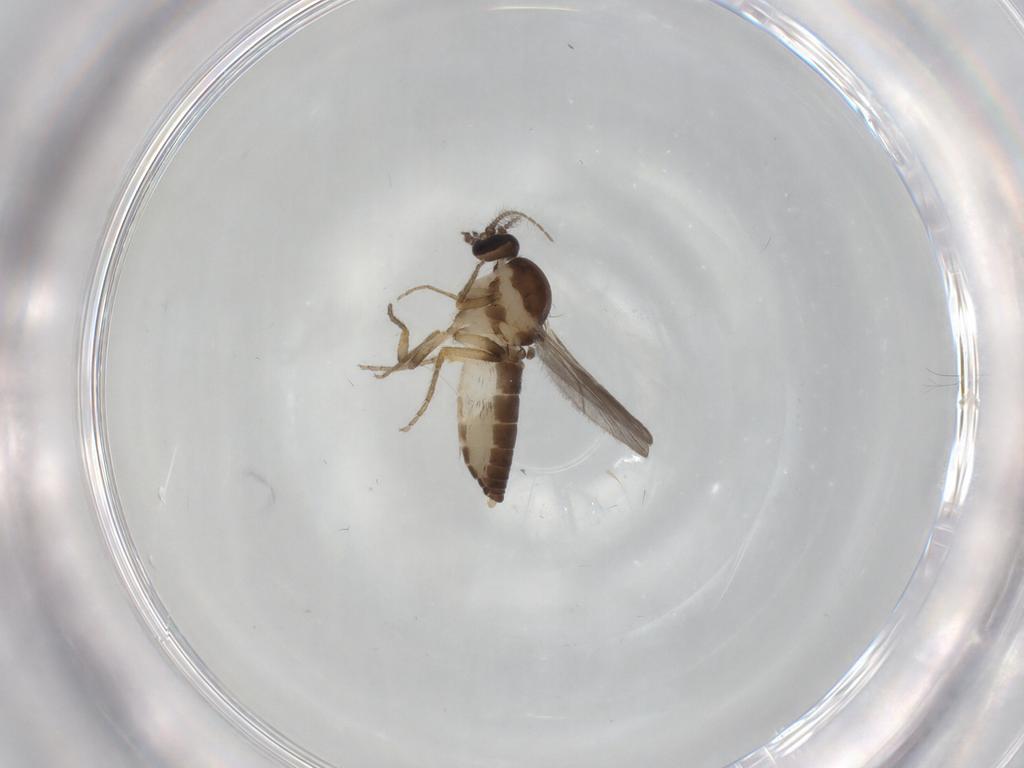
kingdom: Animalia
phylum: Arthropoda
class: Insecta
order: Diptera
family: Ceratopogonidae
